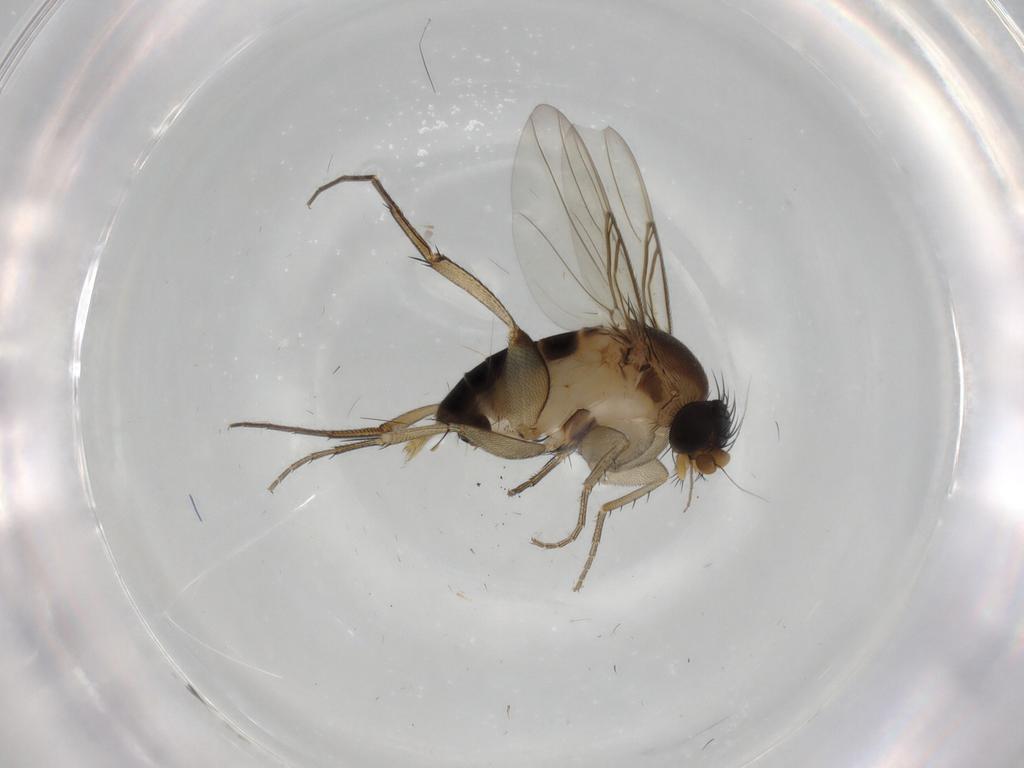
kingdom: Animalia
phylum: Arthropoda
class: Insecta
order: Diptera
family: Phoridae
